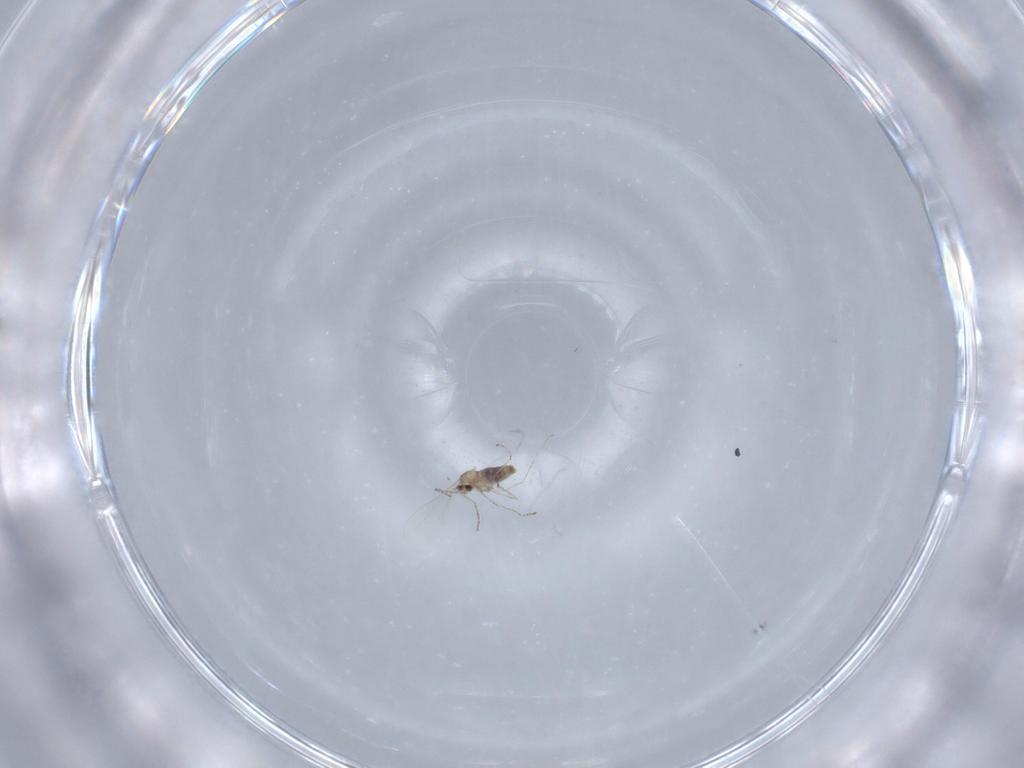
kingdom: Animalia
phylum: Arthropoda
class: Insecta
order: Diptera
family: Cecidomyiidae
